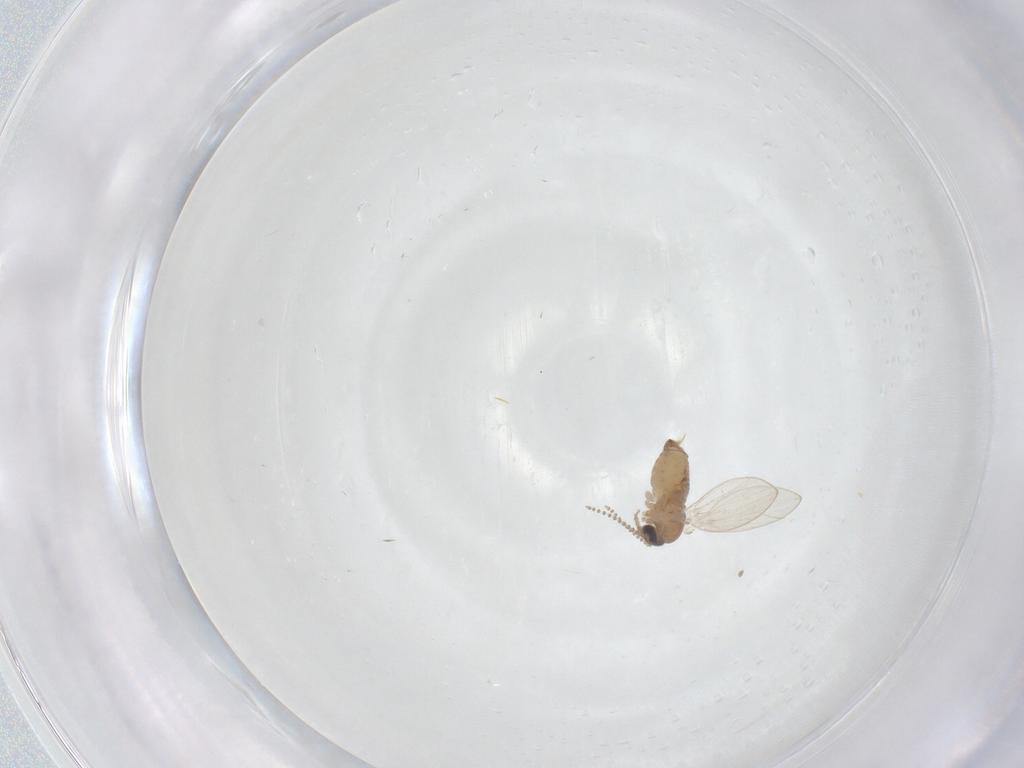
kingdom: Animalia
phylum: Arthropoda
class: Insecta
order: Diptera
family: Psychodidae
